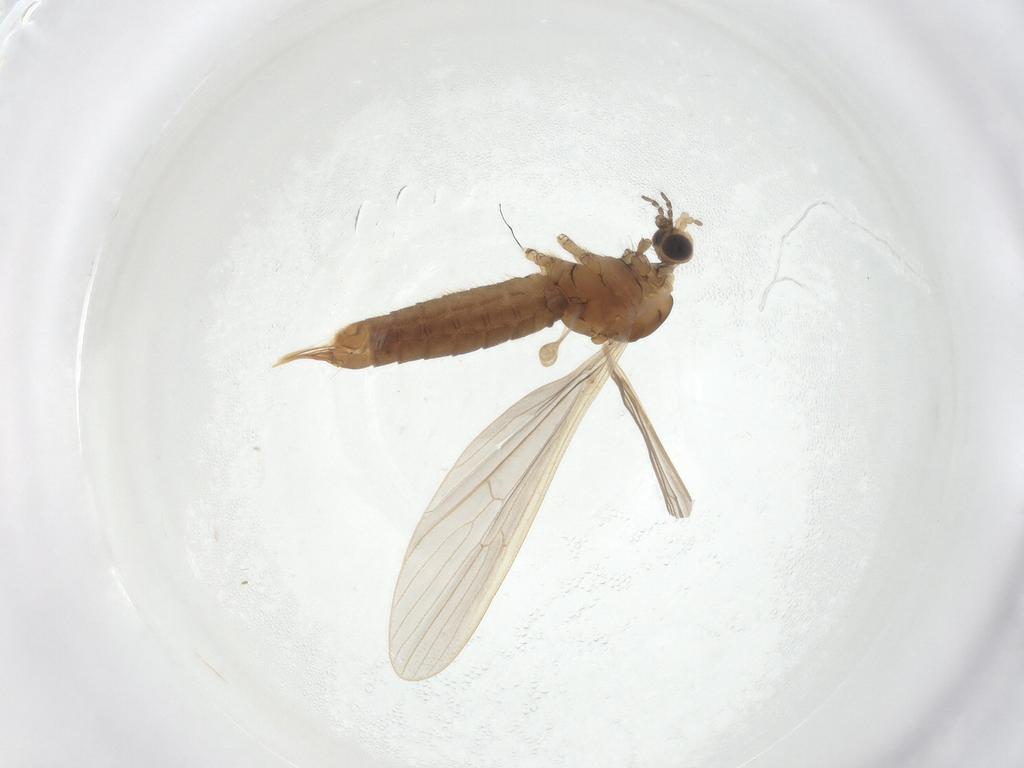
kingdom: Animalia
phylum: Arthropoda
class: Insecta
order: Diptera
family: Limoniidae
